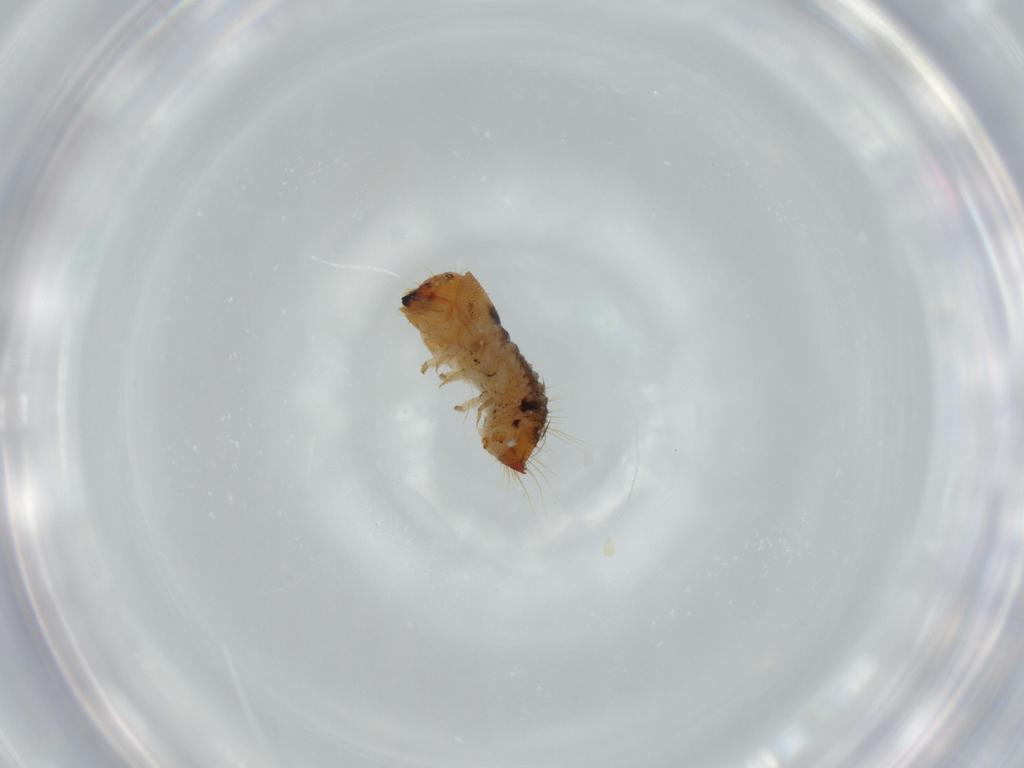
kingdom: Animalia
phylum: Arthropoda
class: Insecta
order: Coleoptera
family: Lymexylidae
